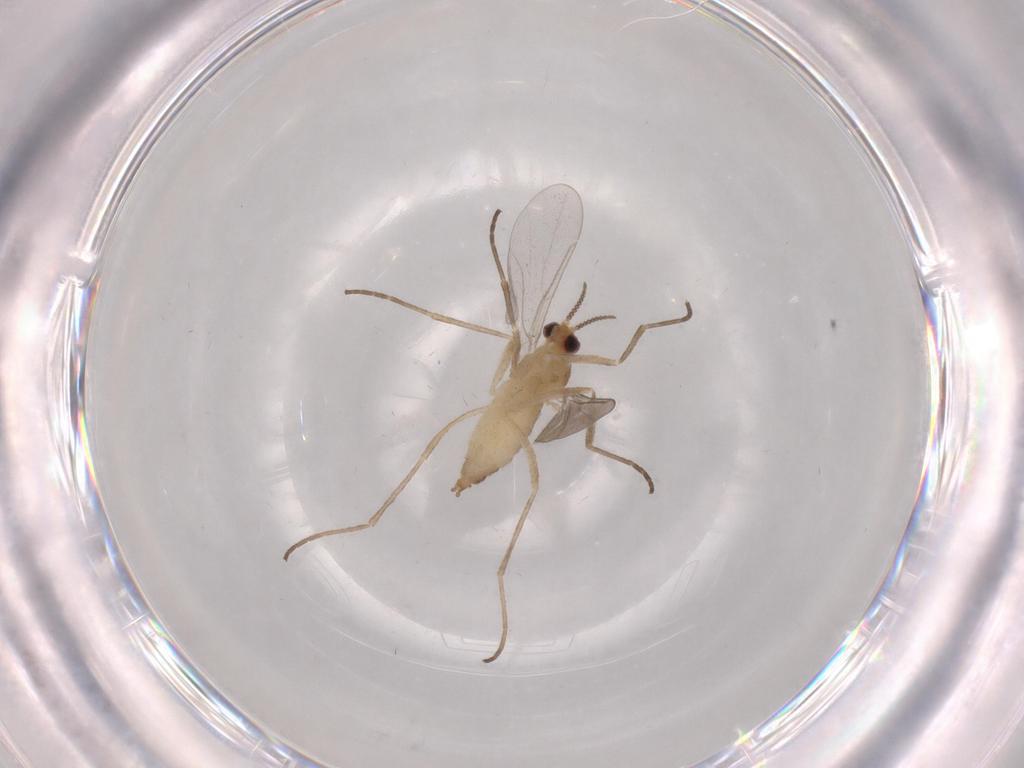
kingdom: Animalia
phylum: Arthropoda
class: Insecta
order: Diptera
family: Cecidomyiidae
